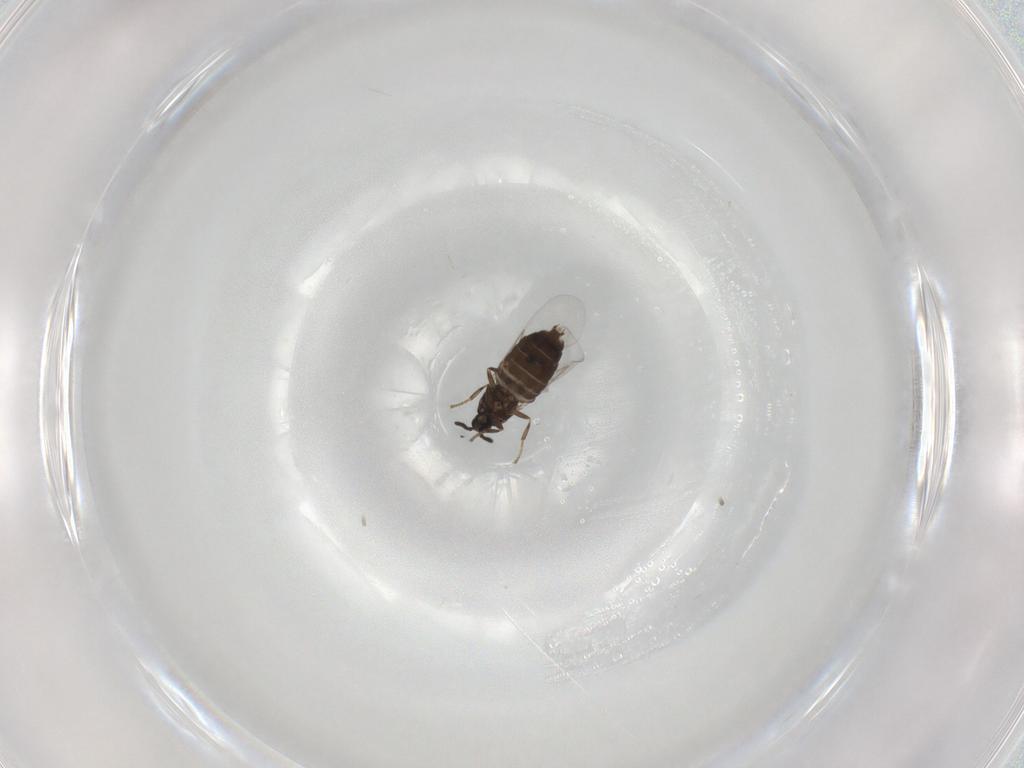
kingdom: Animalia
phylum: Arthropoda
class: Insecta
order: Diptera
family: Scatopsidae
